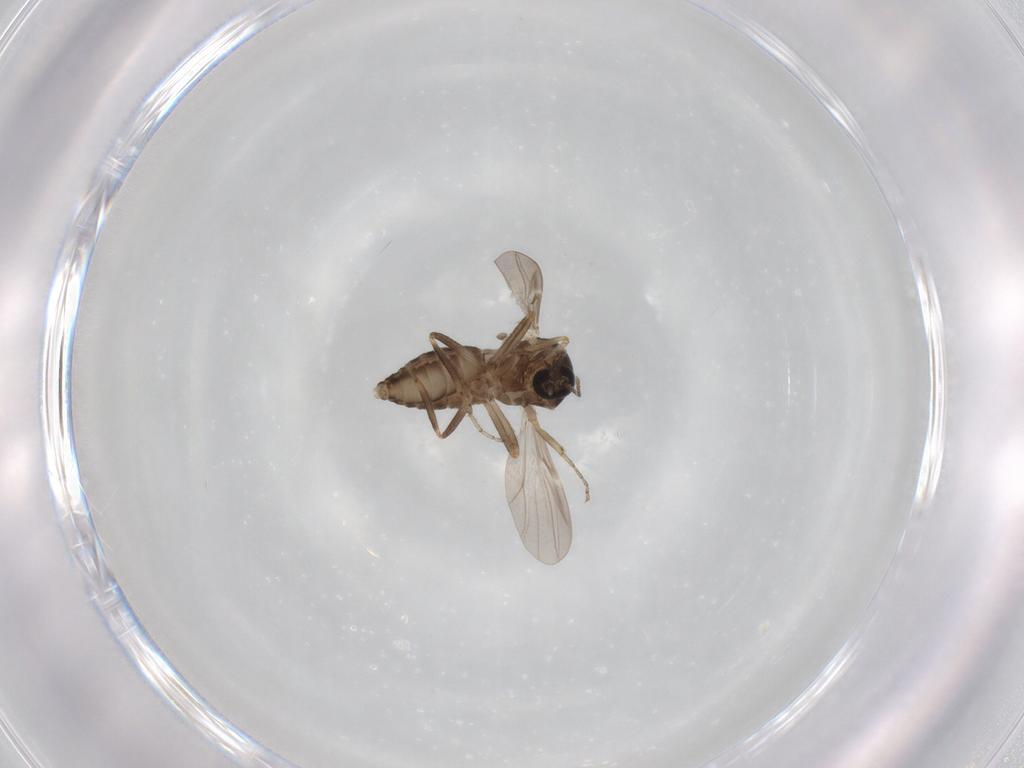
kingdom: Animalia
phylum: Arthropoda
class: Insecta
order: Diptera
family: Ceratopogonidae
